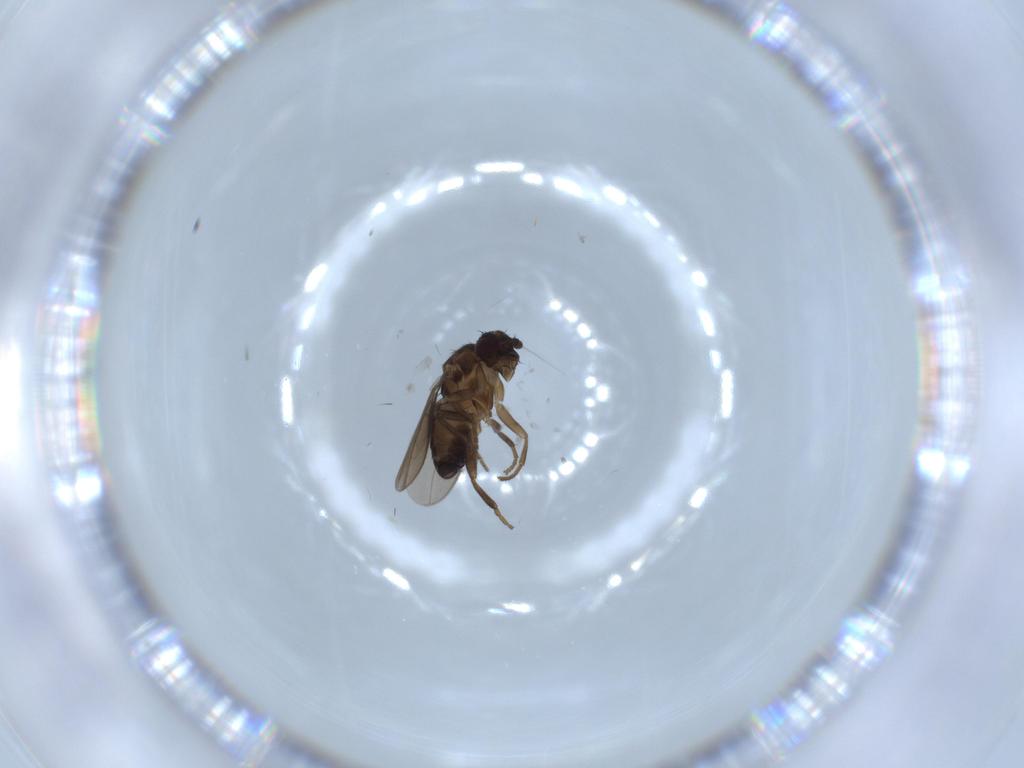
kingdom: Animalia
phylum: Arthropoda
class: Insecta
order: Diptera
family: Sphaeroceridae
